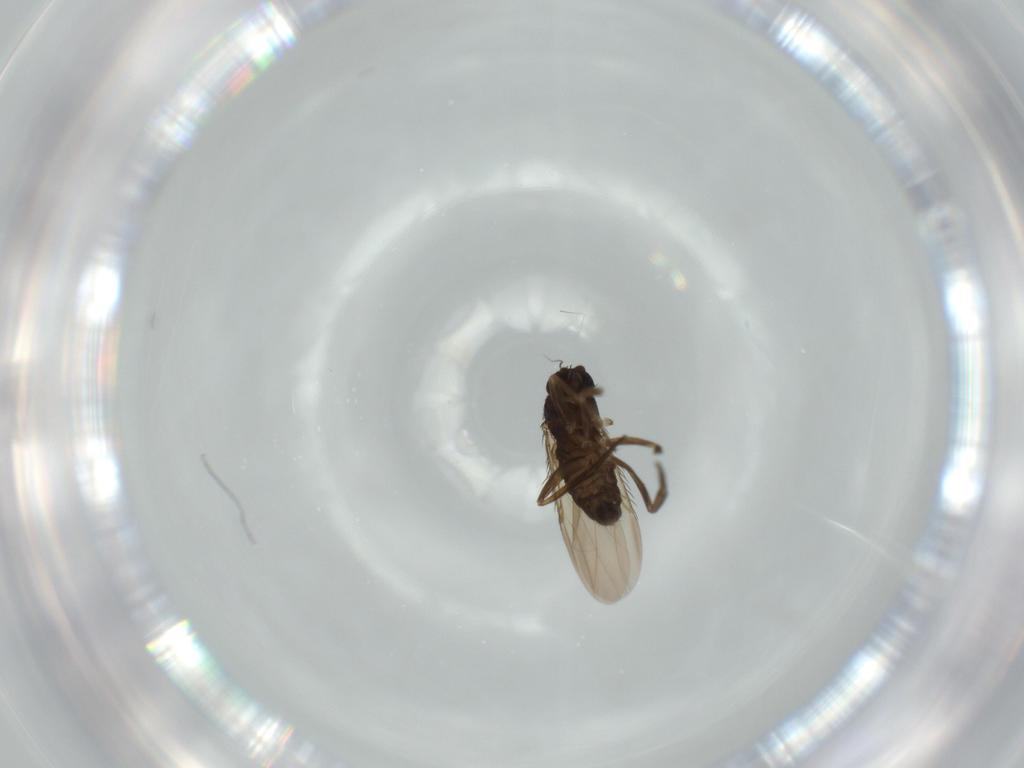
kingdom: Animalia
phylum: Arthropoda
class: Insecta
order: Diptera
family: Phoridae
